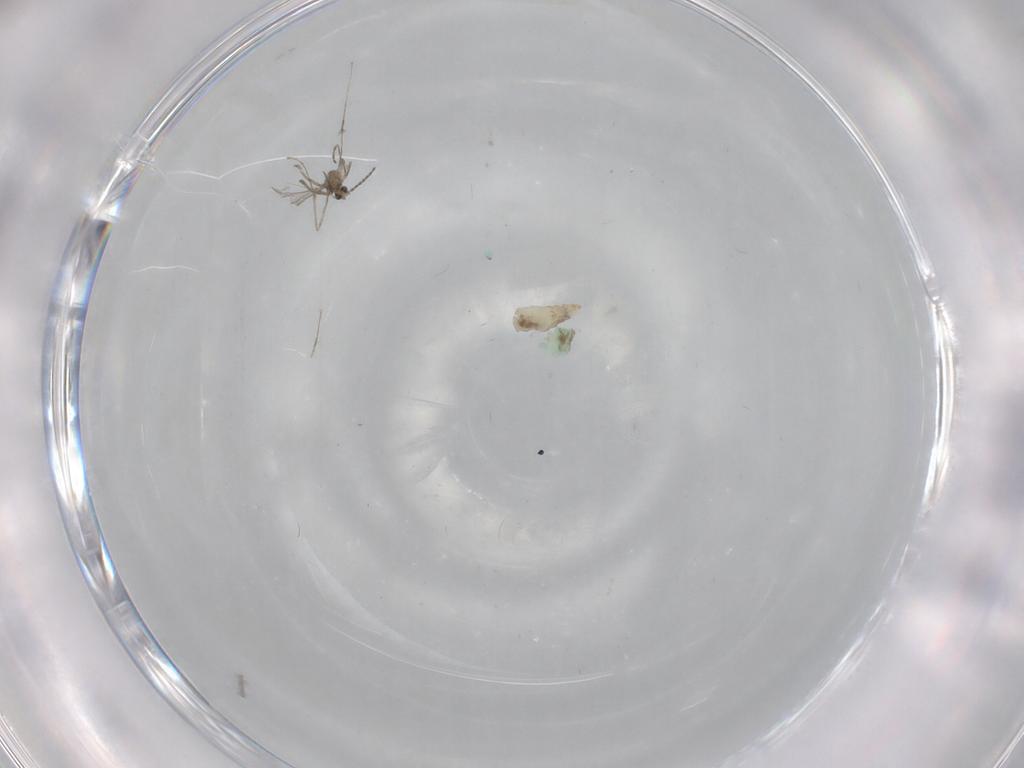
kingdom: Animalia
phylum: Arthropoda
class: Insecta
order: Diptera
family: Cecidomyiidae
